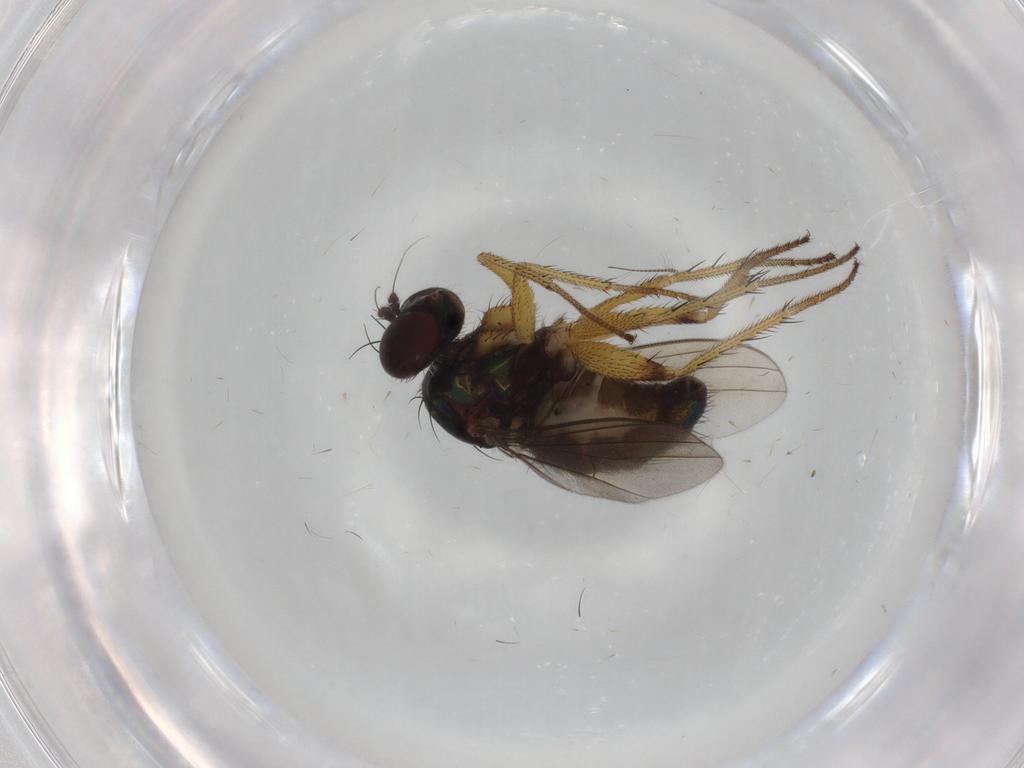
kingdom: Animalia
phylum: Arthropoda
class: Insecta
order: Diptera
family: Dolichopodidae
